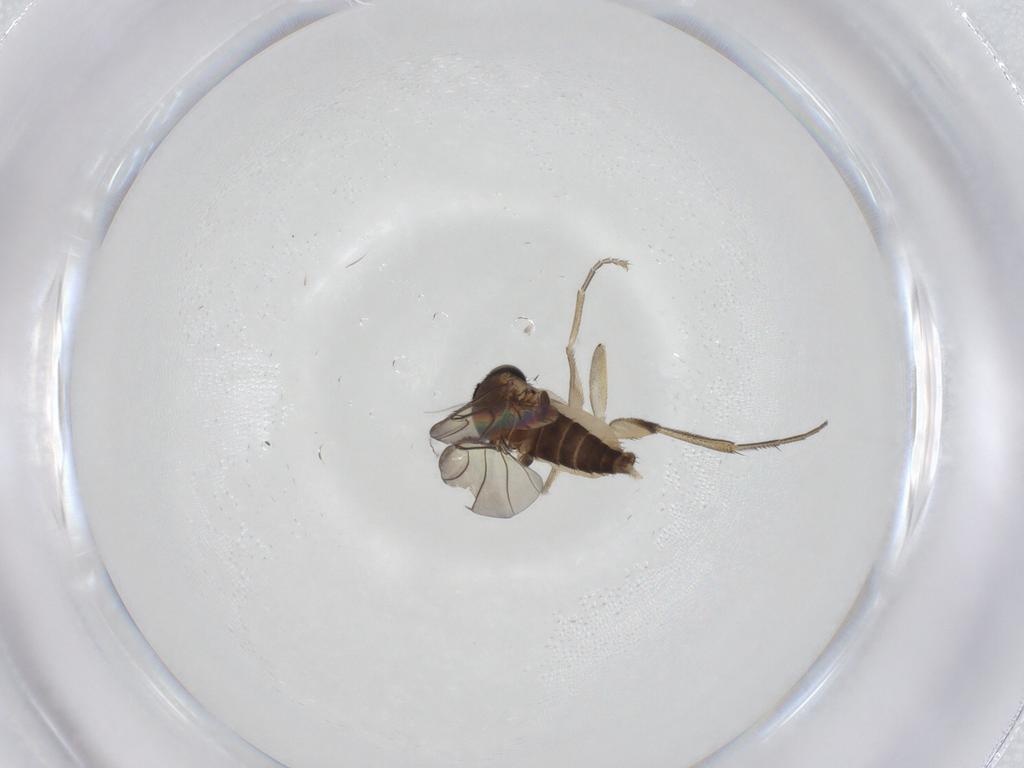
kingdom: Animalia
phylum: Arthropoda
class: Insecta
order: Diptera
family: Phoridae
